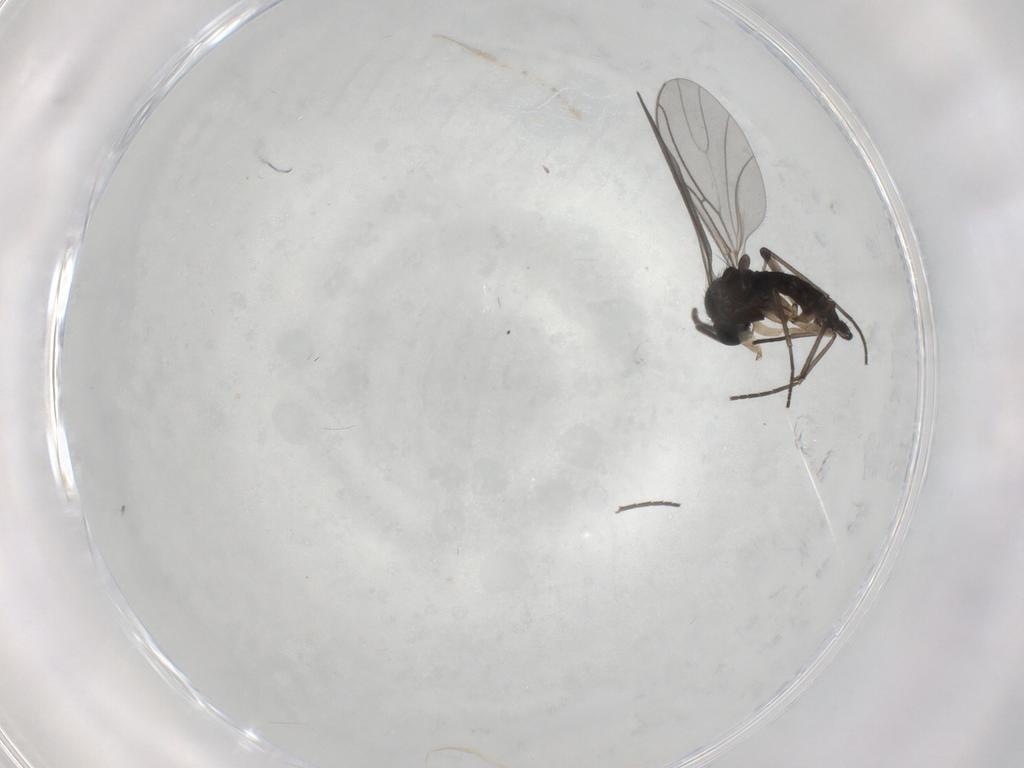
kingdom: Animalia
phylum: Arthropoda
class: Insecta
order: Diptera
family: Sciaridae
